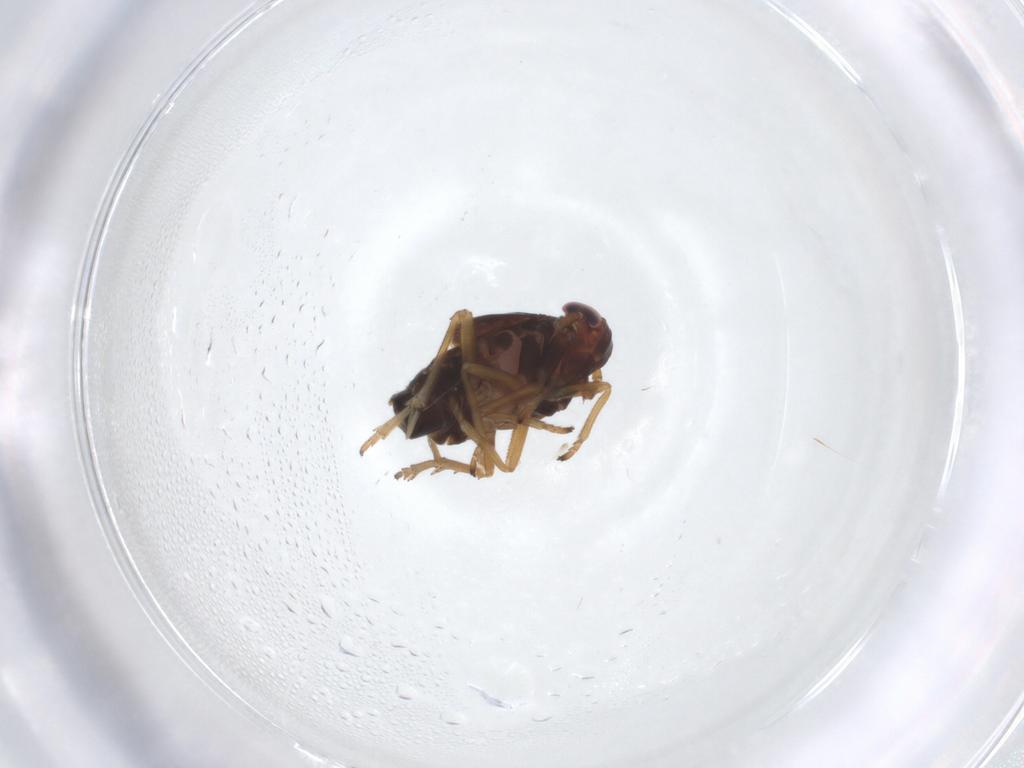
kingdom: Animalia
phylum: Arthropoda
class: Insecta
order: Hemiptera
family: Delphacidae
